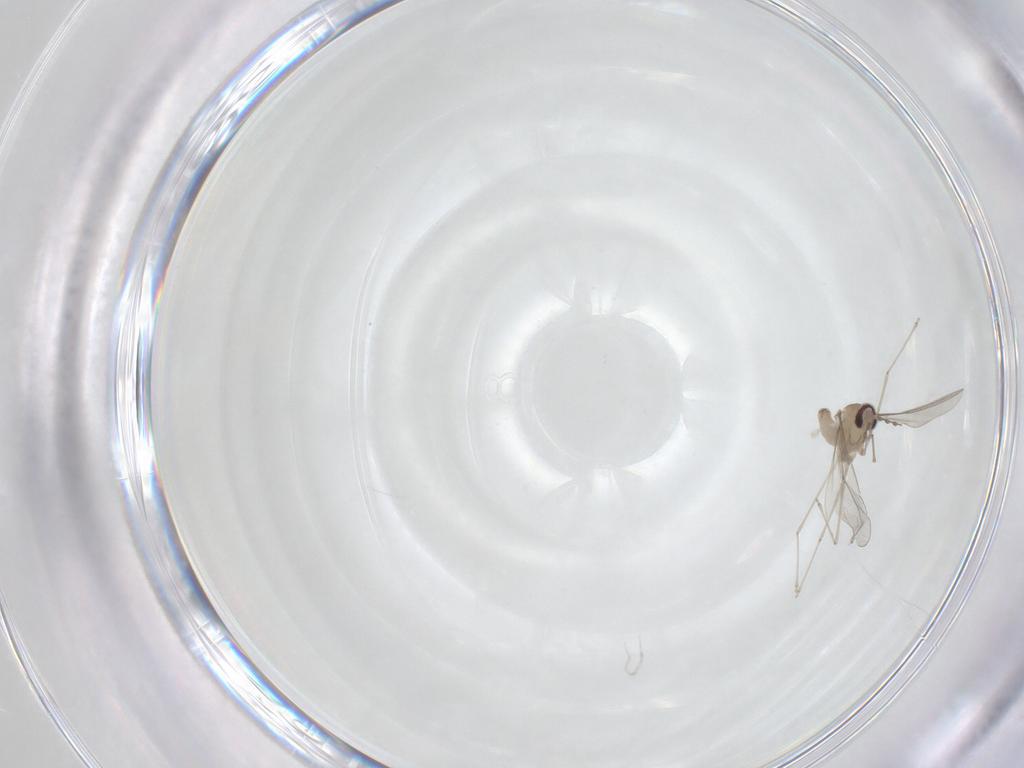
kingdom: Animalia
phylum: Arthropoda
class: Insecta
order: Diptera
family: Cecidomyiidae
